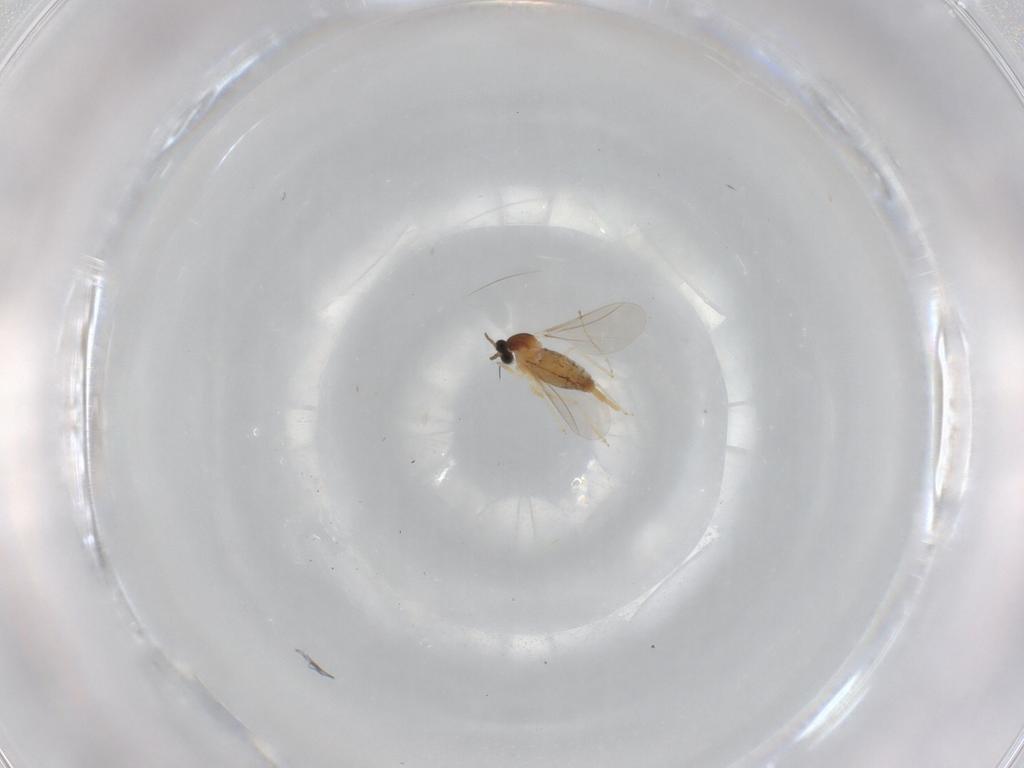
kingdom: Animalia
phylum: Arthropoda
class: Insecta
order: Diptera
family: Cecidomyiidae
